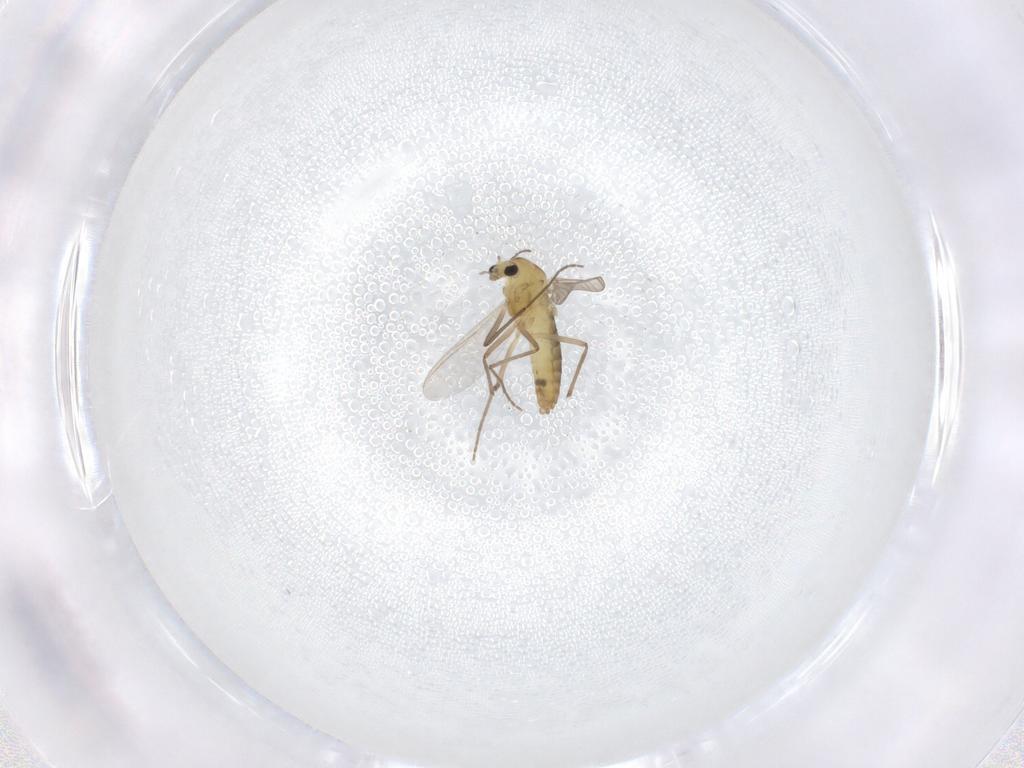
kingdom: Animalia
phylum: Arthropoda
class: Insecta
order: Diptera
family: Chironomidae
